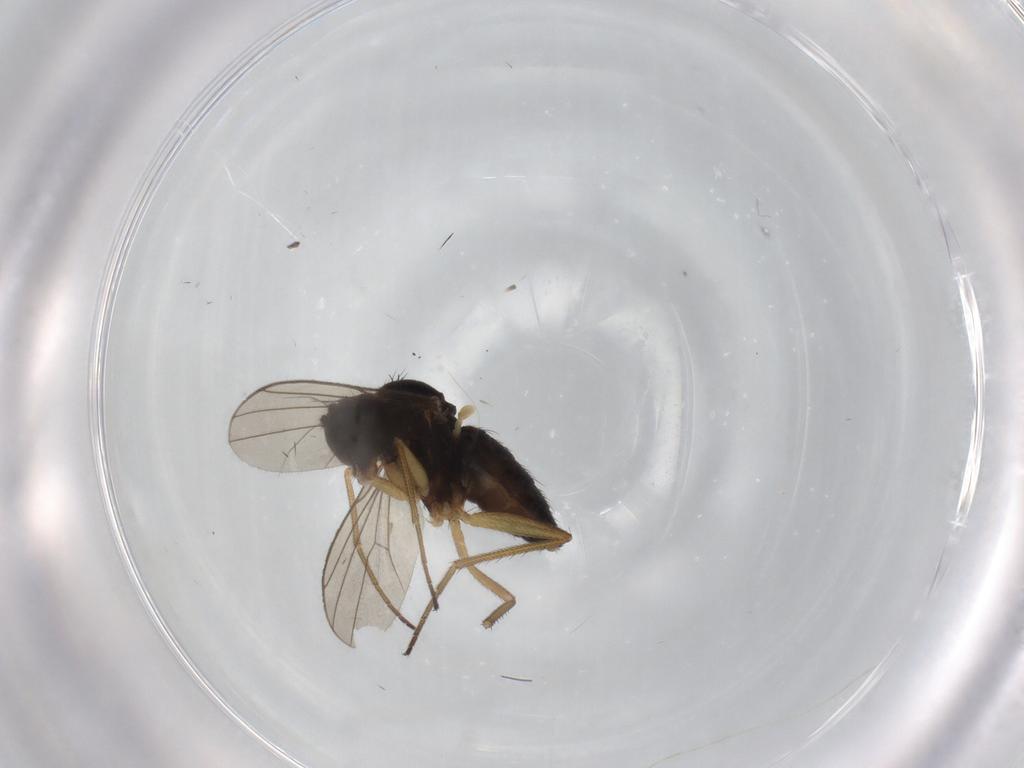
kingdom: Animalia
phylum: Arthropoda
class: Insecta
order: Diptera
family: Dolichopodidae
